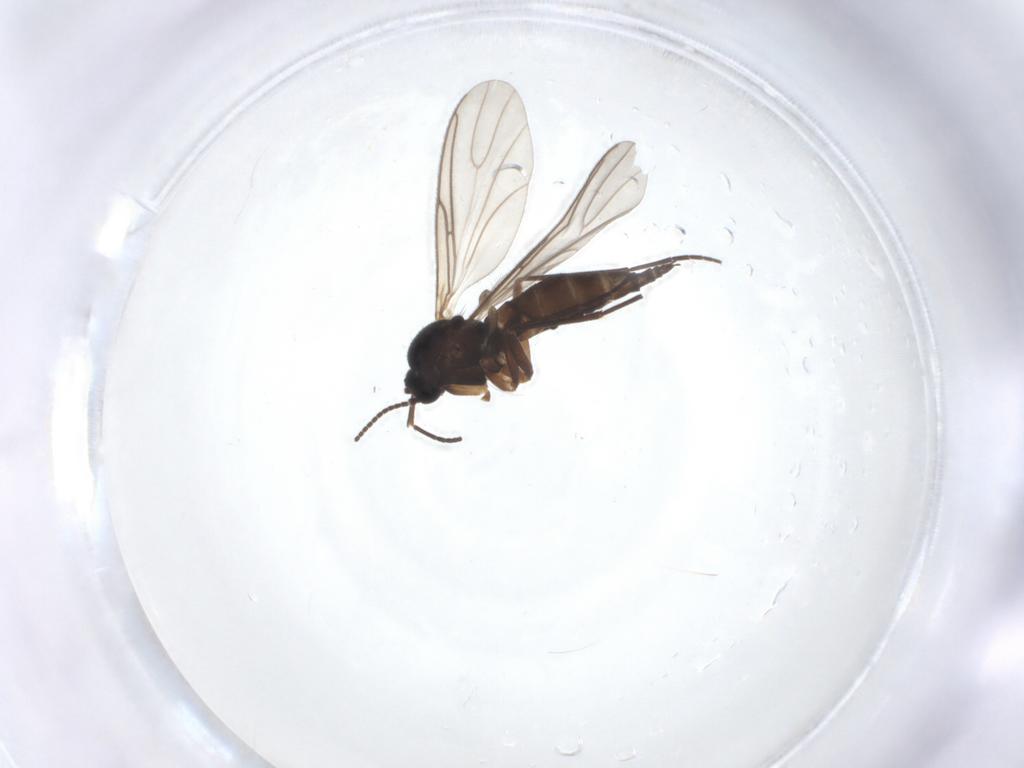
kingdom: Animalia
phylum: Arthropoda
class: Insecta
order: Diptera
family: Sciaridae
